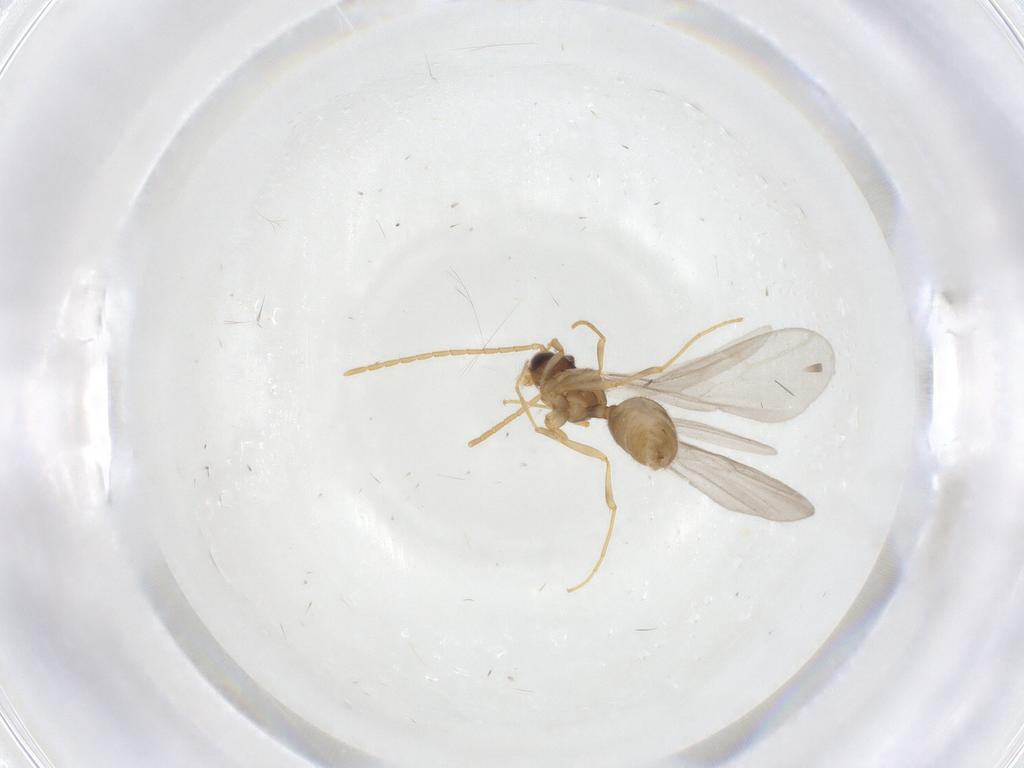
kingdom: Animalia
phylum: Arthropoda
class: Insecta
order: Hymenoptera
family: Formicidae
